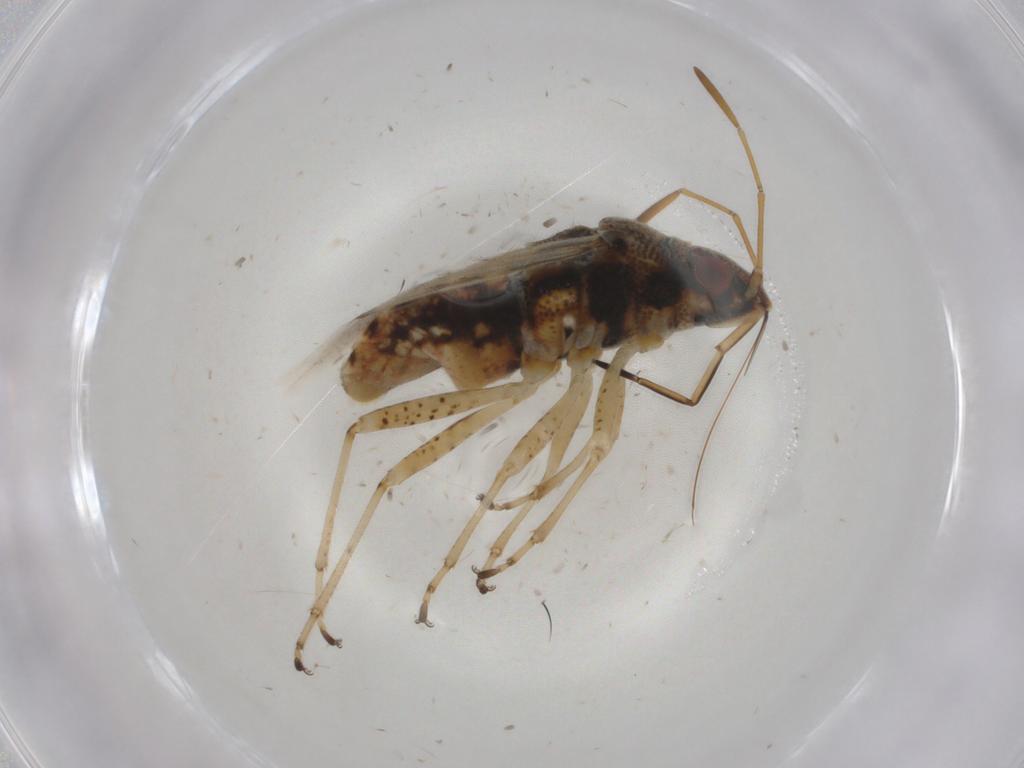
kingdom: Animalia
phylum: Arthropoda
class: Insecta
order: Hemiptera
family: Lygaeidae
